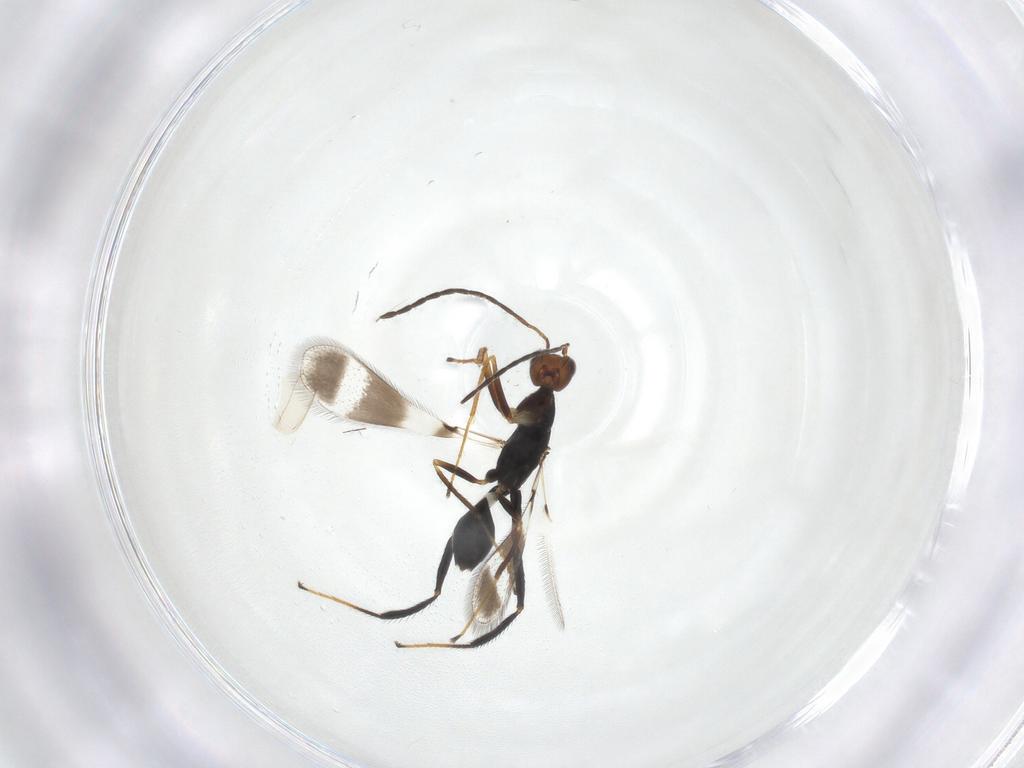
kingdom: Animalia
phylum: Arthropoda
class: Insecta
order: Hymenoptera
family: Mymaridae
